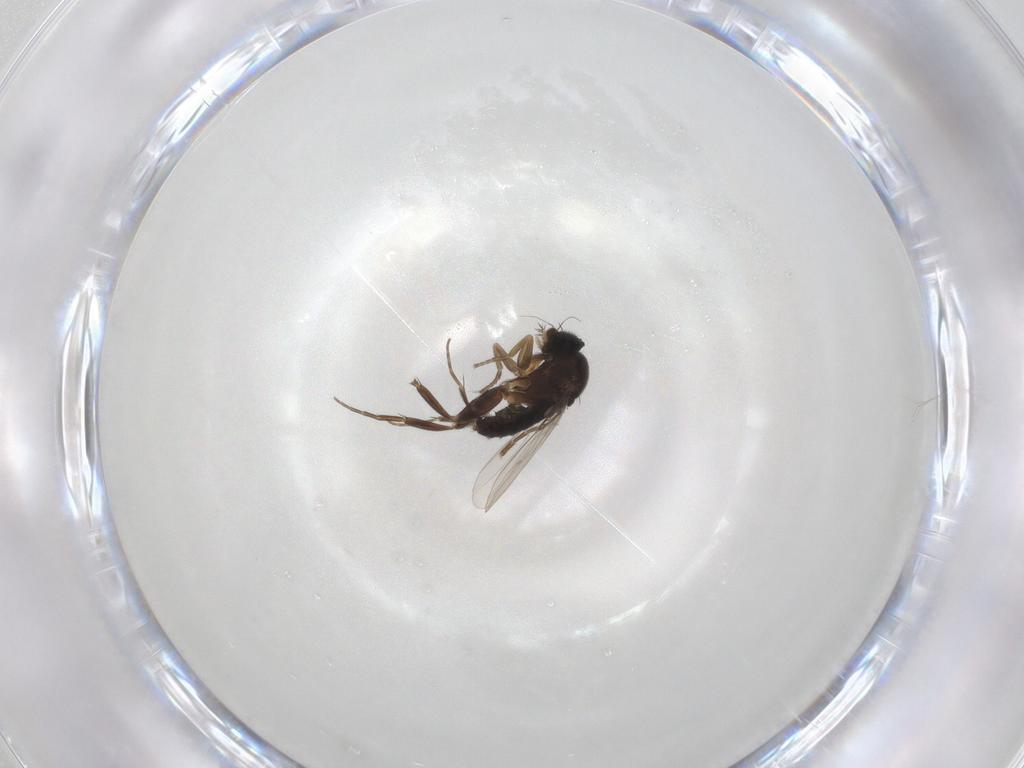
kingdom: Animalia
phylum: Arthropoda
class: Insecta
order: Diptera
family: Phoridae
